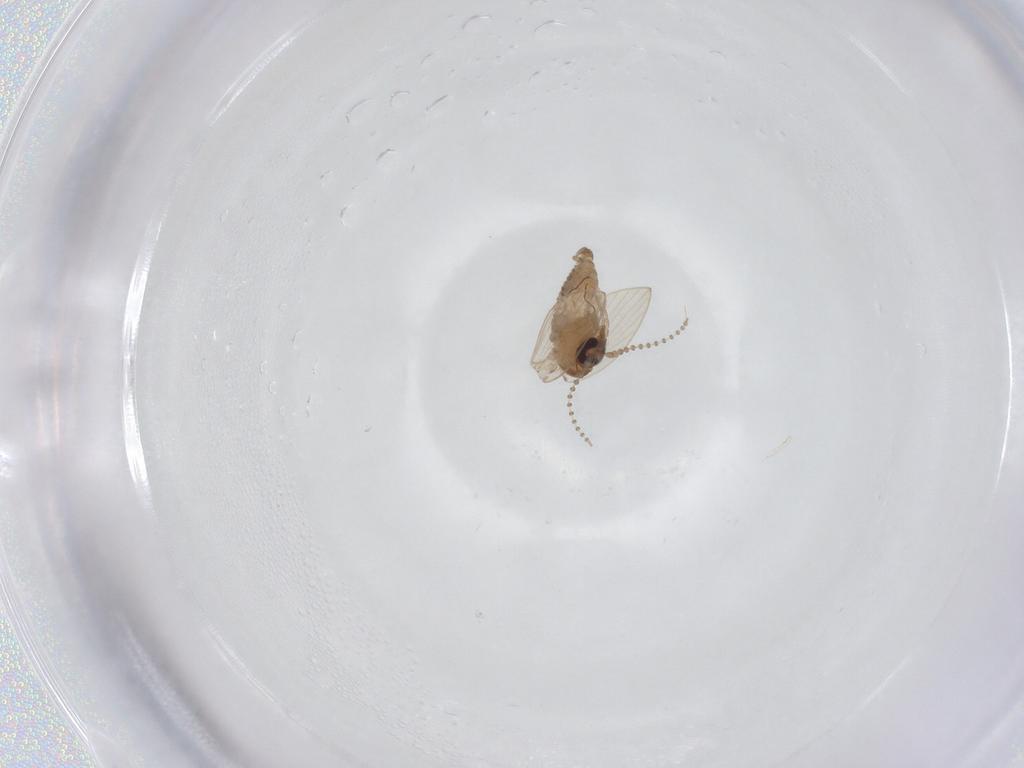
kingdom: Animalia
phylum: Arthropoda
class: Insecta
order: Diptera
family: Psychodidae
